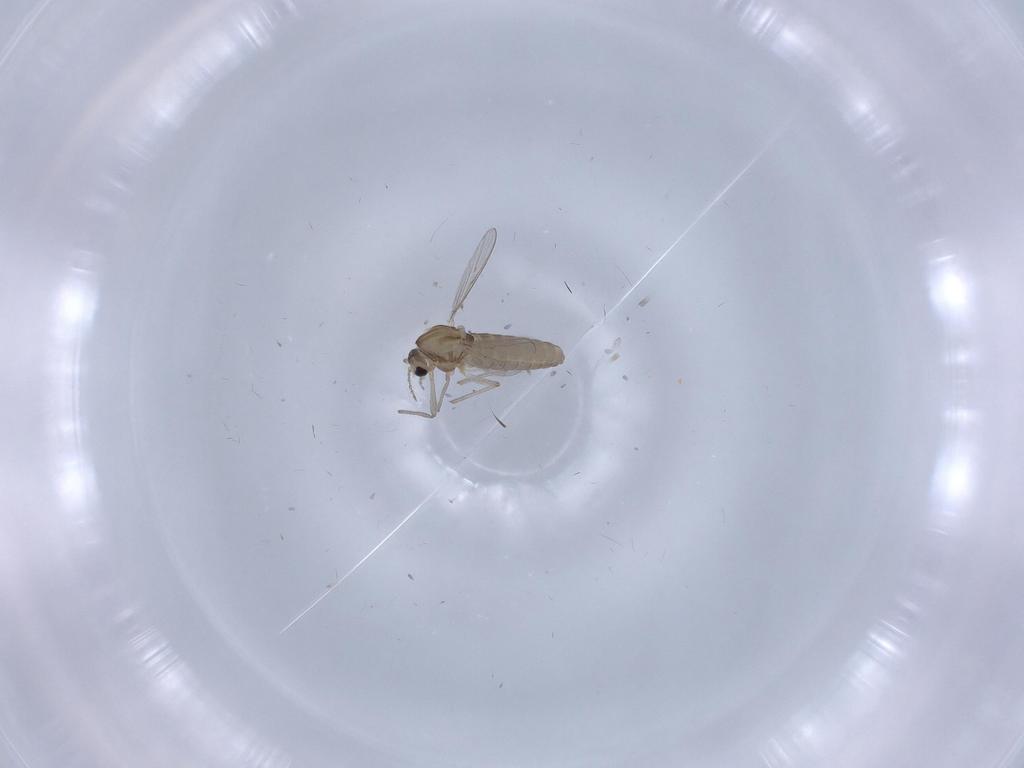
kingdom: Animalia
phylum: Arthropoda
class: Insecta
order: Diptera
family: Chironomidae
